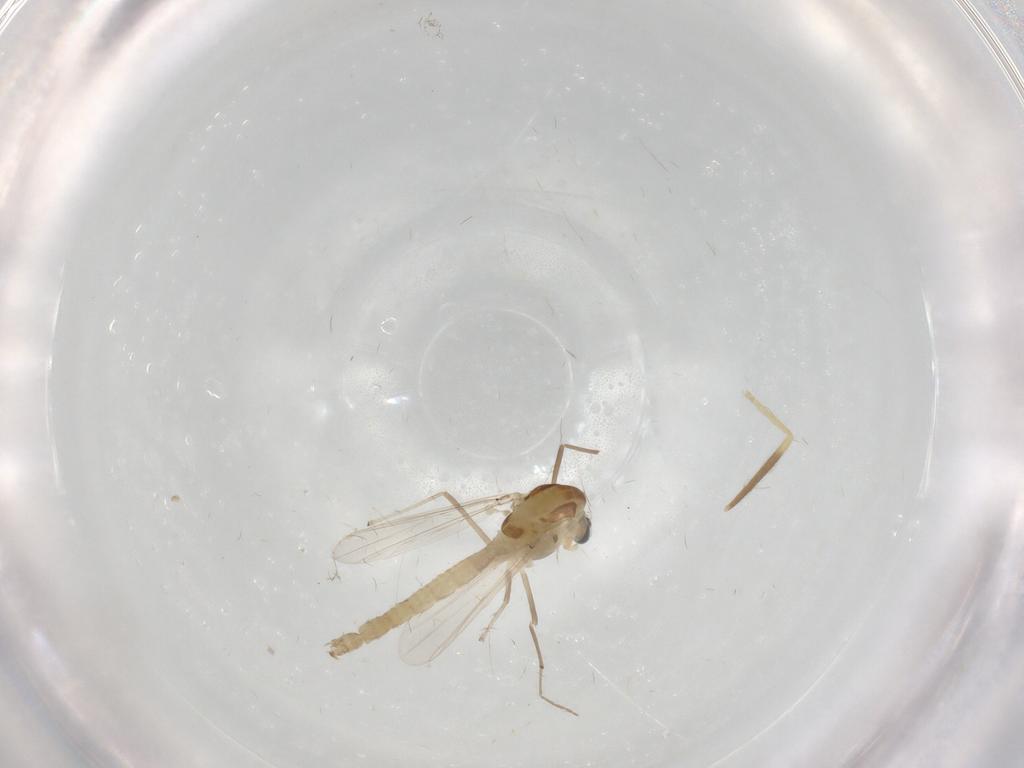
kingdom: Animalia
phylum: Arthropoda
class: Insecta
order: Diptera
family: Chironomidae
